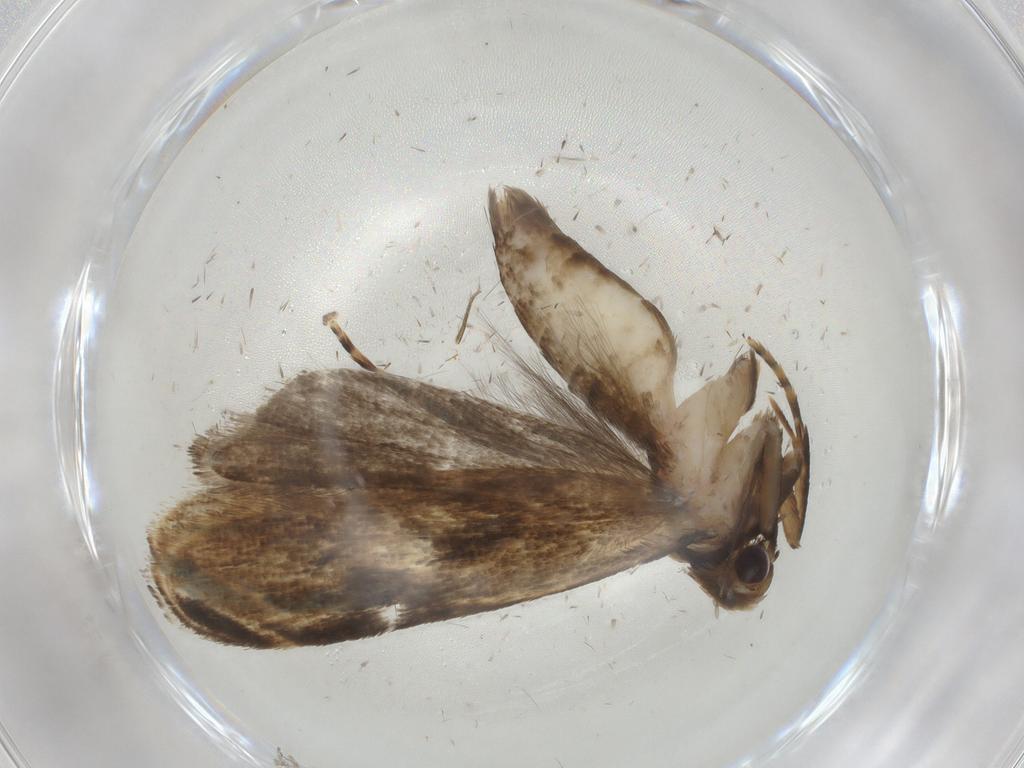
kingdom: Animalia
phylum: Arthropoda
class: Insecta
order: Lepidoptera
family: Gelechiidae
